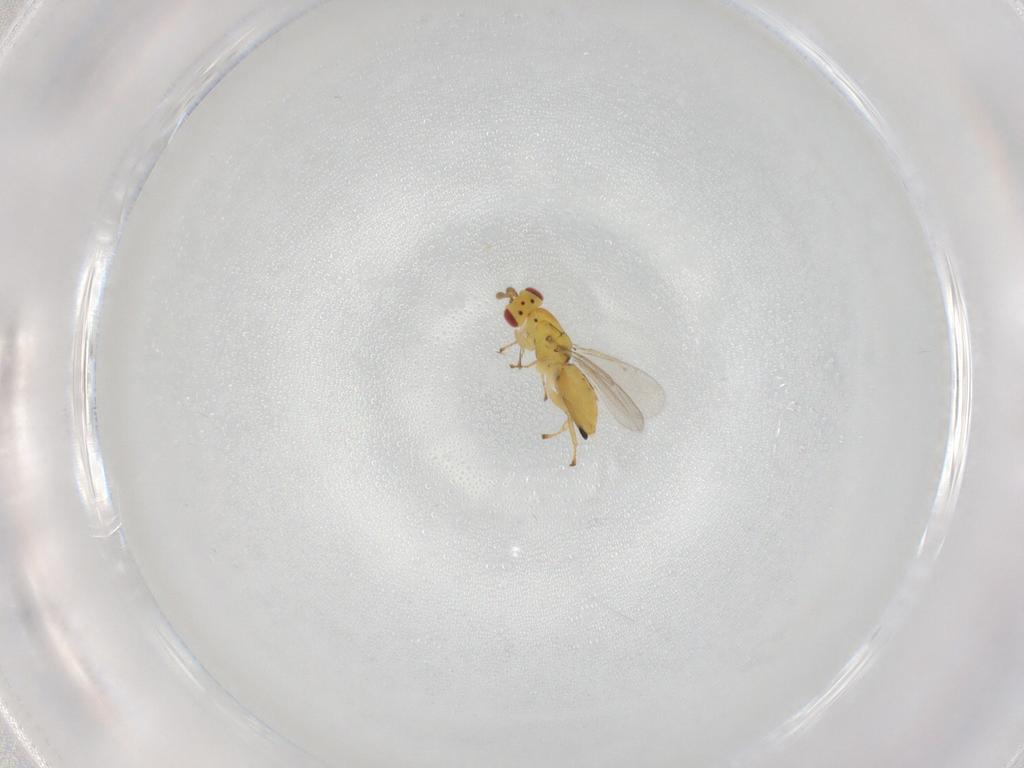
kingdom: Animalia
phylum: Arthropoda
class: Insecta
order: Hymenoptera
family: Eulophidae
